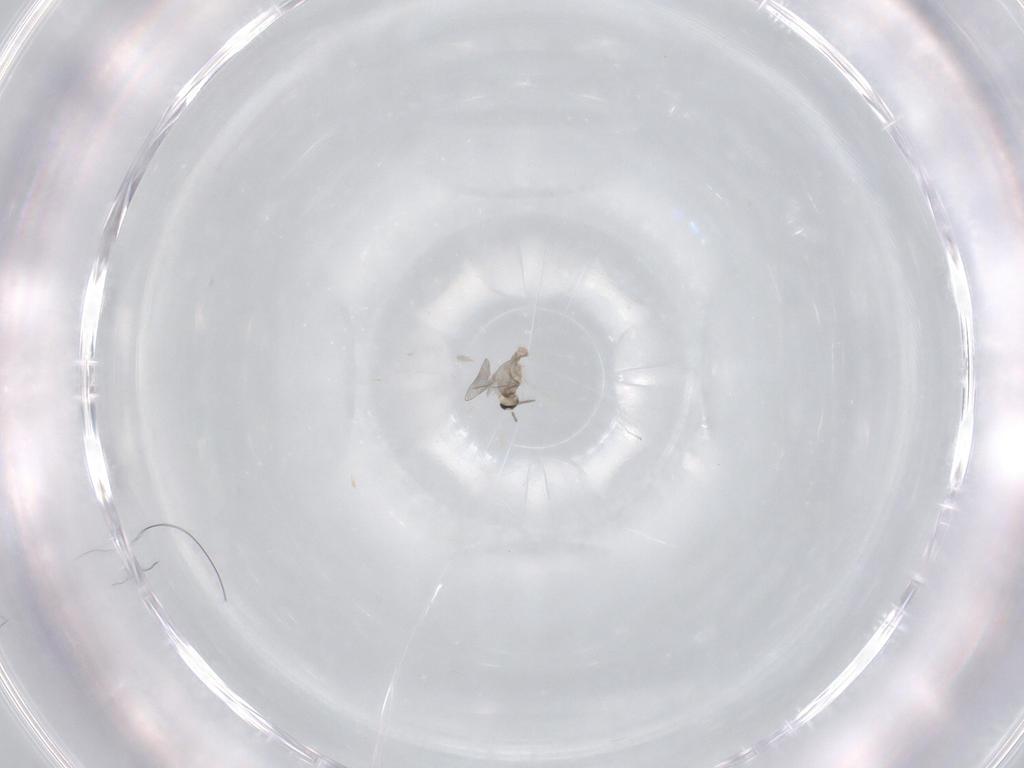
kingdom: Animalia
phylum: Arthropoda
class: Insecta
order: Diptera
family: Cecidomyiidae
